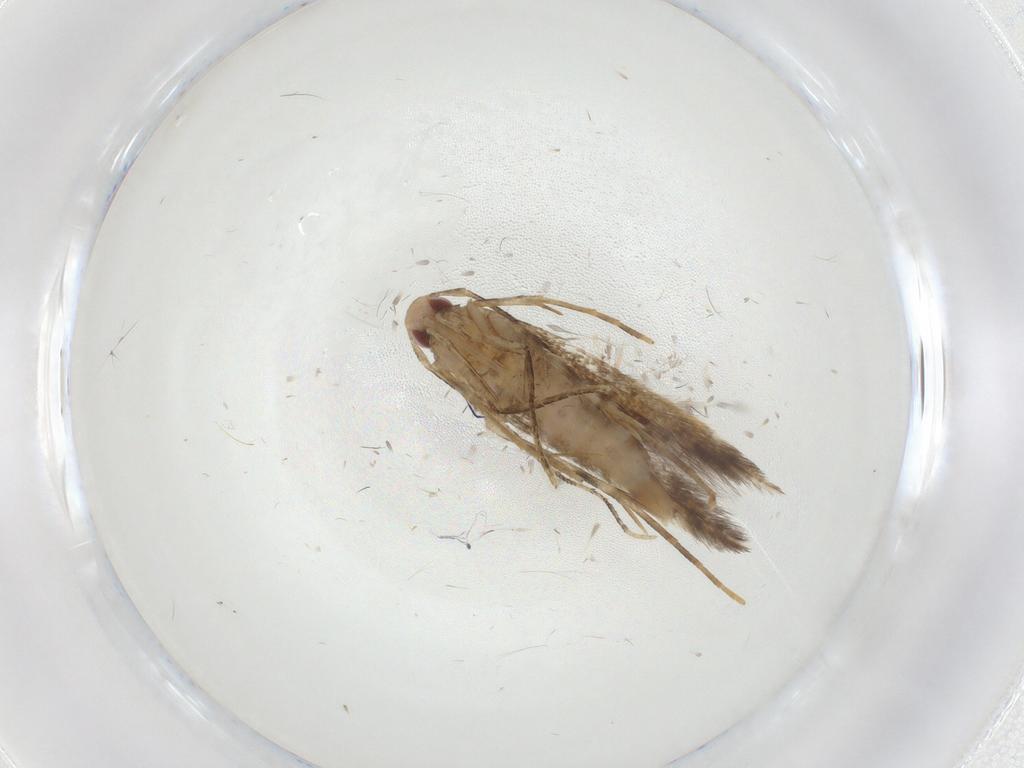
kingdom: Animalia
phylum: Arthropoda
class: Insecta
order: Lepidoptera
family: Cosmopterigidae
